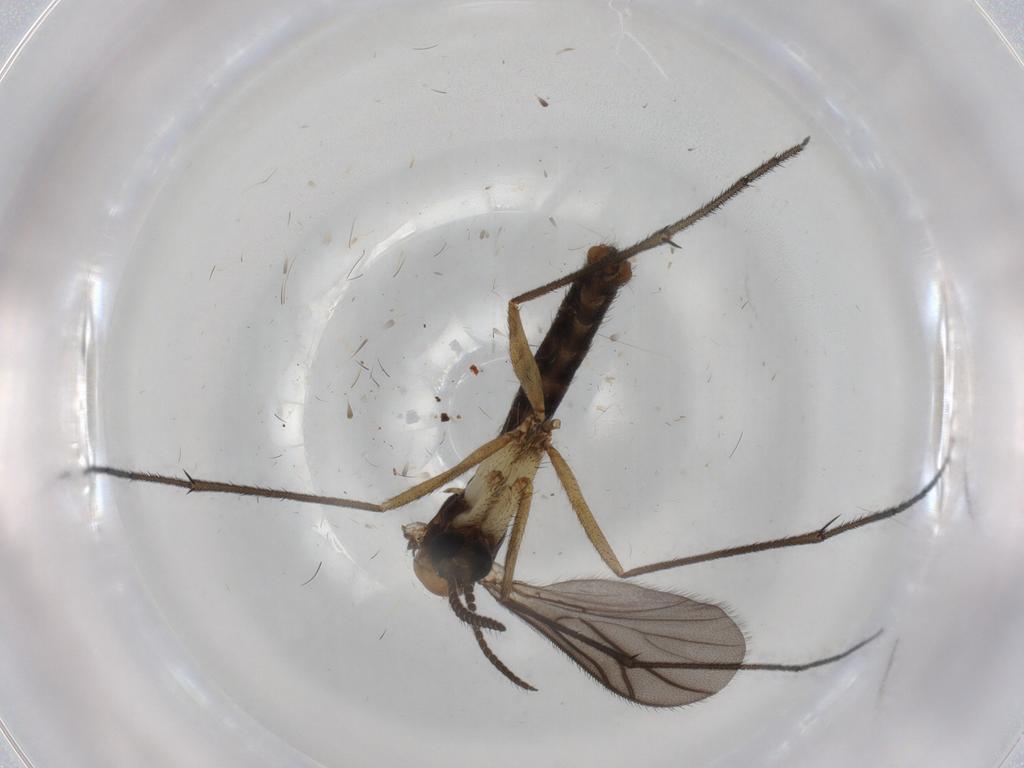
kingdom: Animalia
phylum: Arthropoda
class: Insecta
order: Diptera
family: Cecidomyiidae
